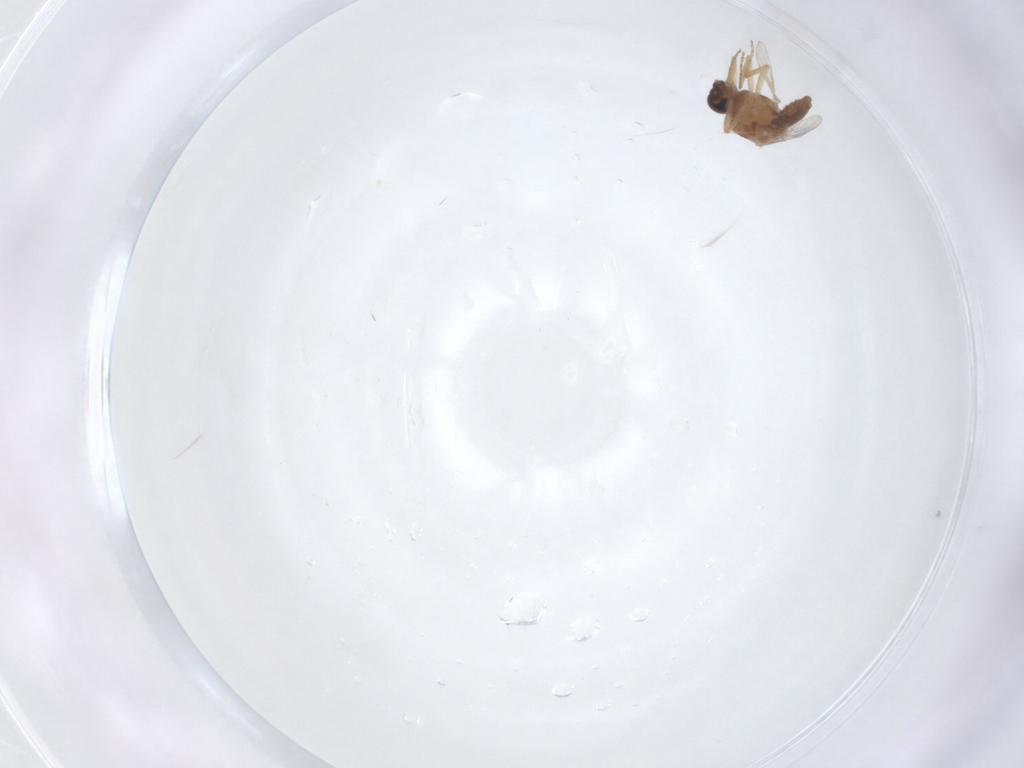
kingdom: Animalia
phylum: Arthropoda
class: Insecta
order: Diptera
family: Ceratopogonidae
